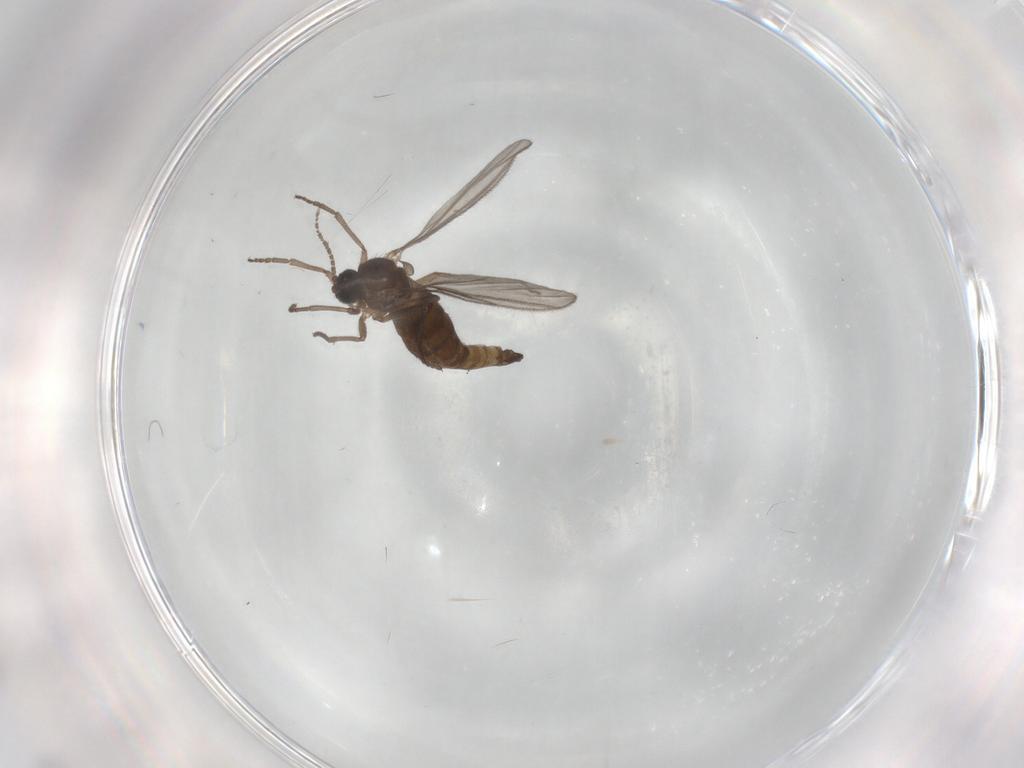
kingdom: Animalia
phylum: Arthropoda
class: Insecta
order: Diptera
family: Sciaridae
